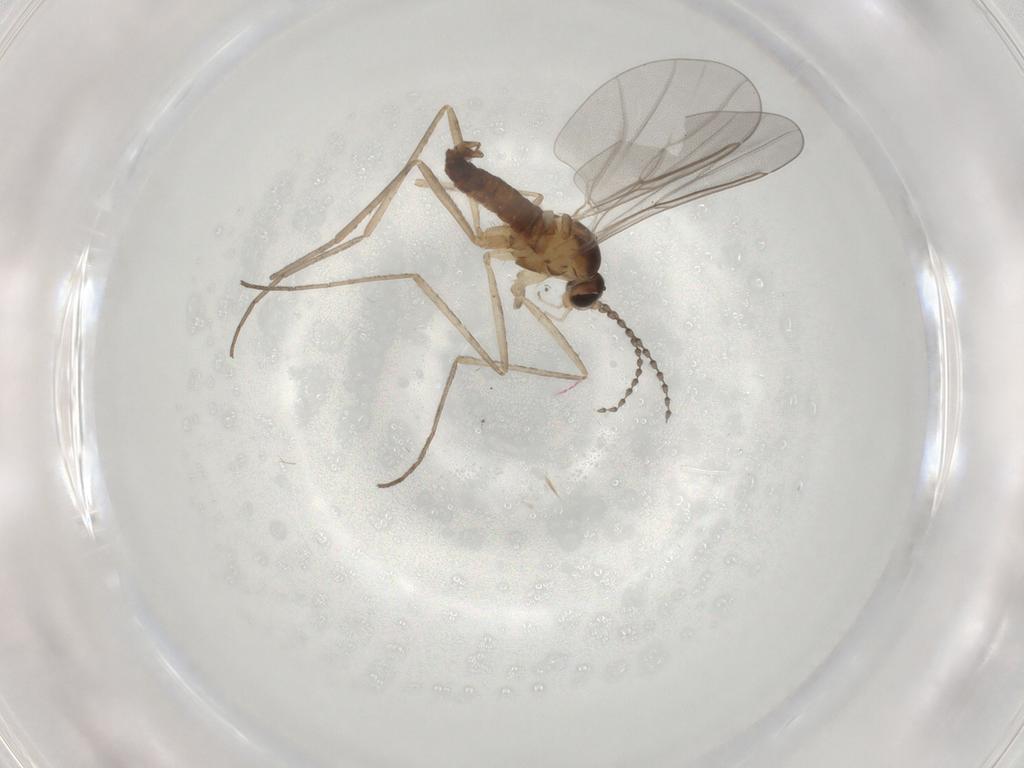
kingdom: Animalia
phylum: Arthropoda
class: Insecta
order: Diptera
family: Cecidomyiidae
